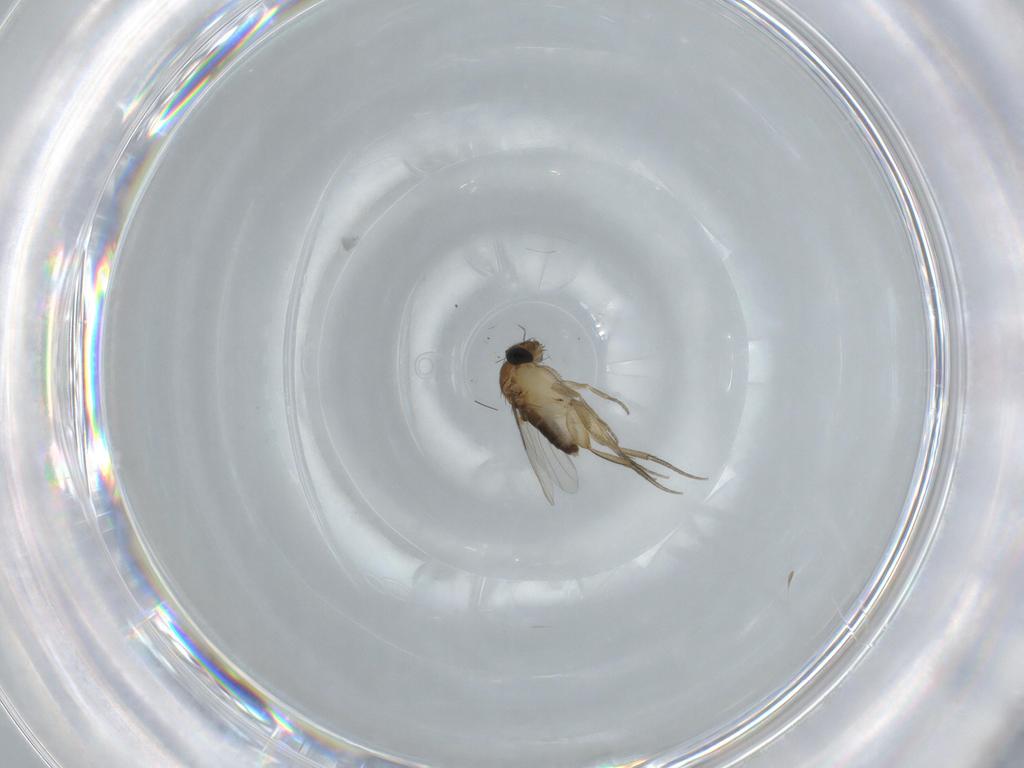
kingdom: Animalia
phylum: Arthropoda
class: Insecta
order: Diptera
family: Phoridae
